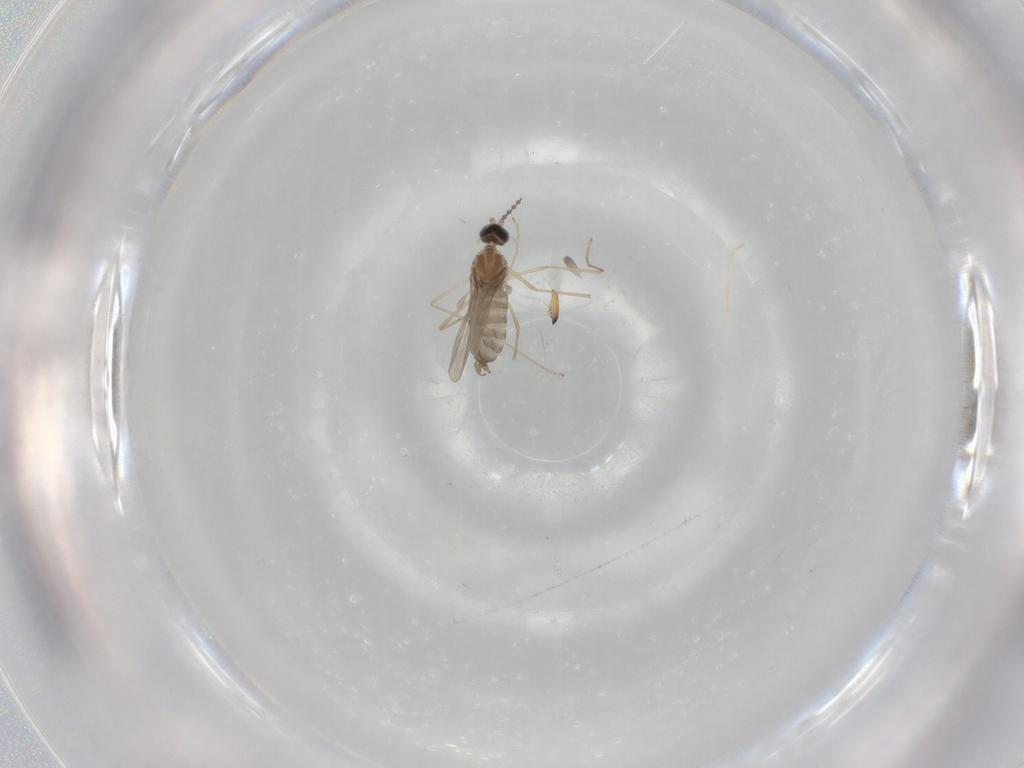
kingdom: Animalia
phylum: Arthropoda
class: Insecta
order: Diptera
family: Cecidomyiidae
